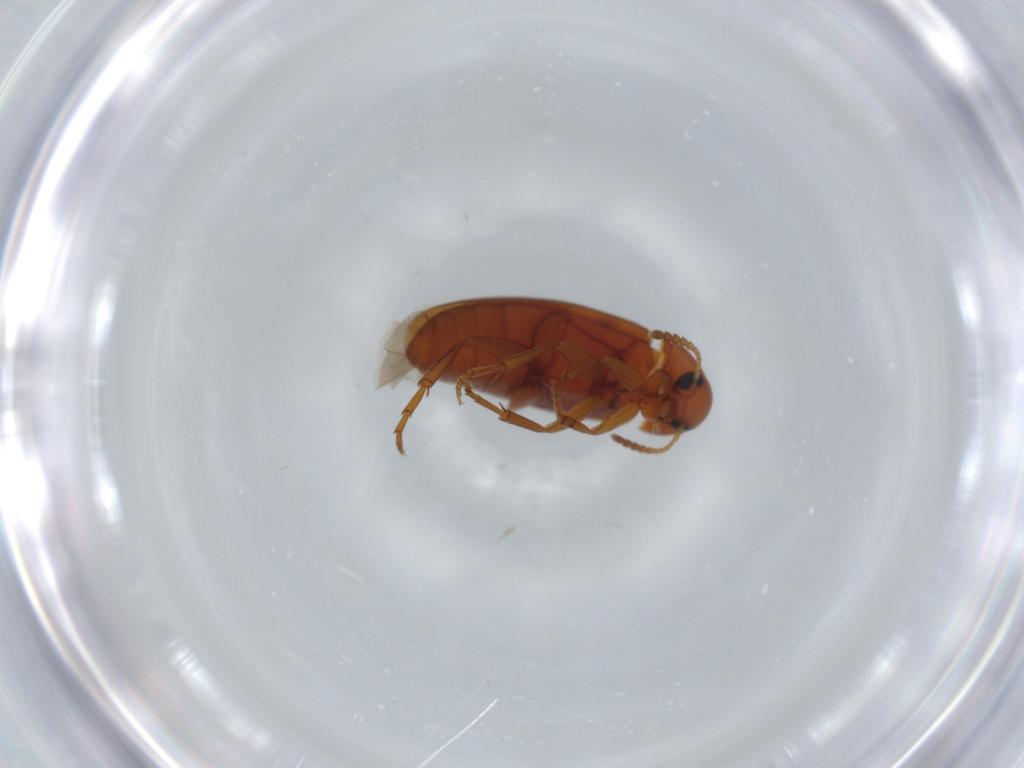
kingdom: Animalia
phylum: Arthropoda
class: Insecta
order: Coleoptera
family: Scraptiidae
